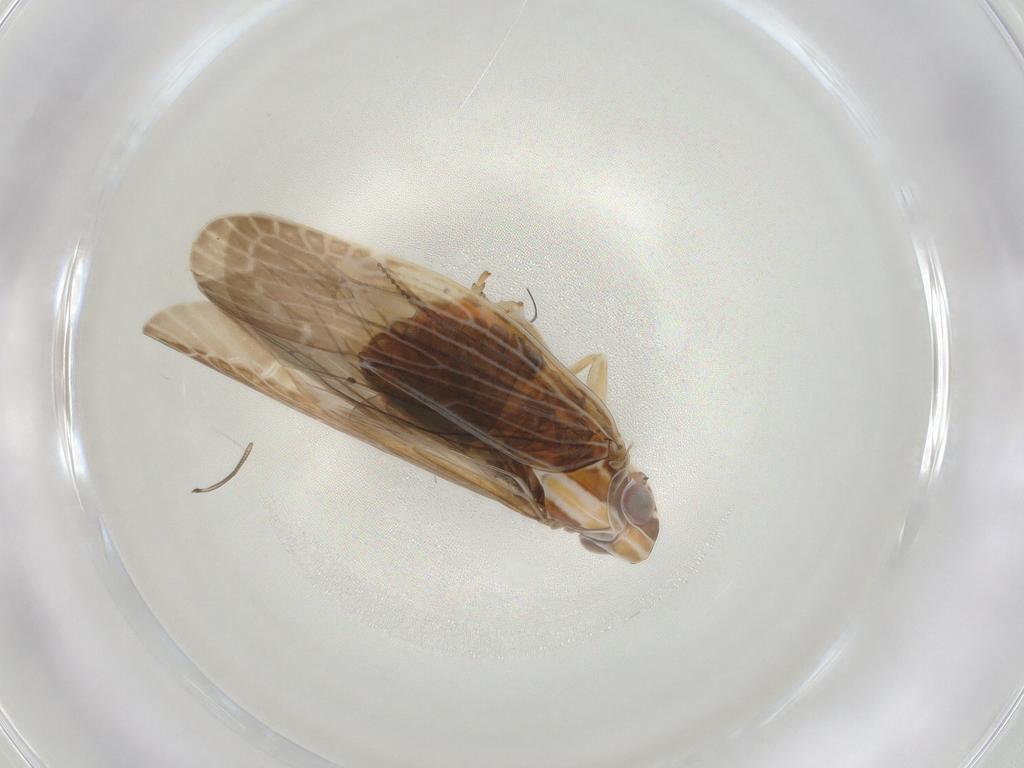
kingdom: Animalia
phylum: Arthropoda
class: Insecta
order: Hemiptera
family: Achilidae
